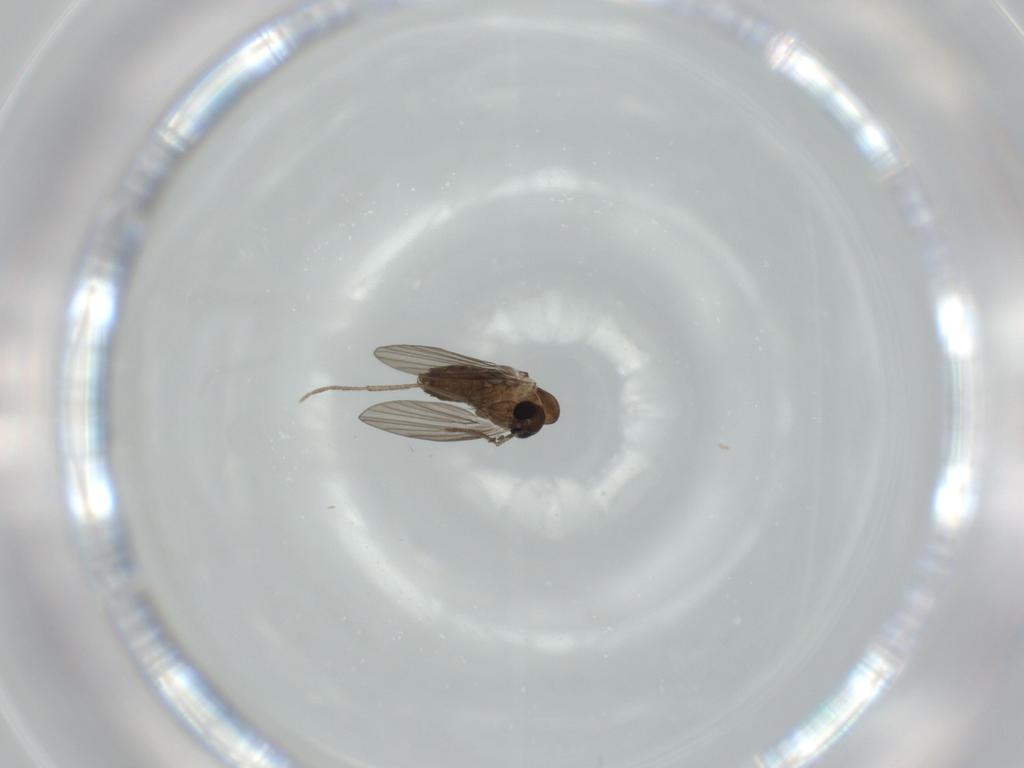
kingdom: Animalia
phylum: Arthropoda
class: Insecta
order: Diptera
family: Psychodidae
